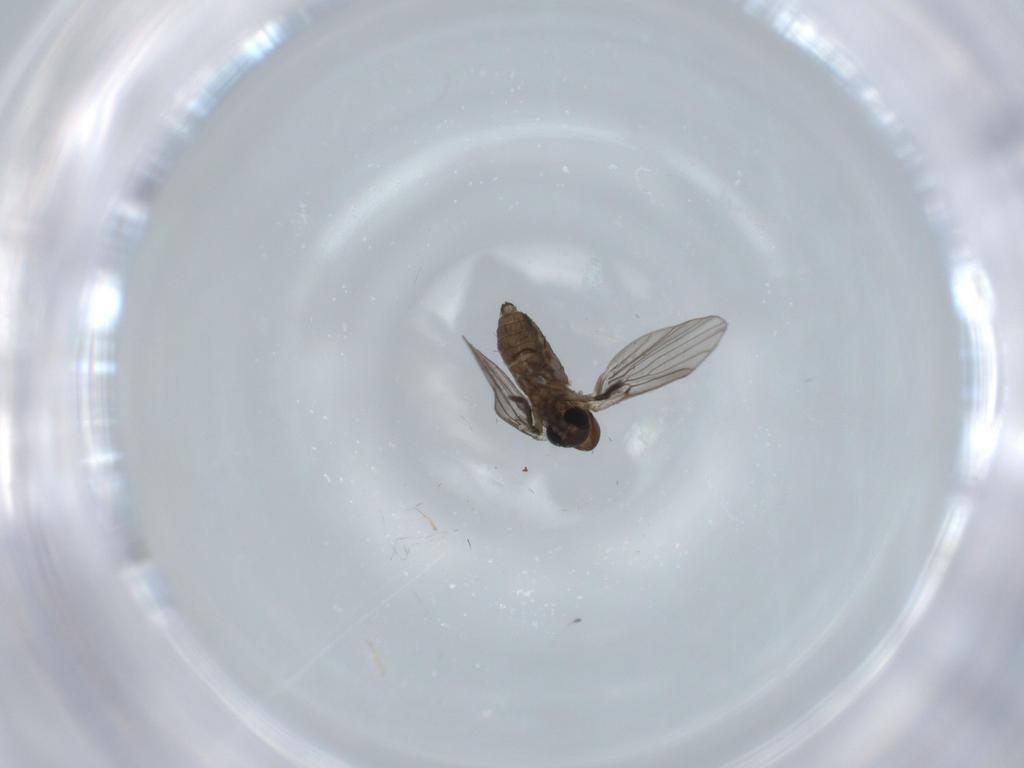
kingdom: Animalia
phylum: Arthropoda
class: Insecta
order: Diptera
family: Psychodidae
